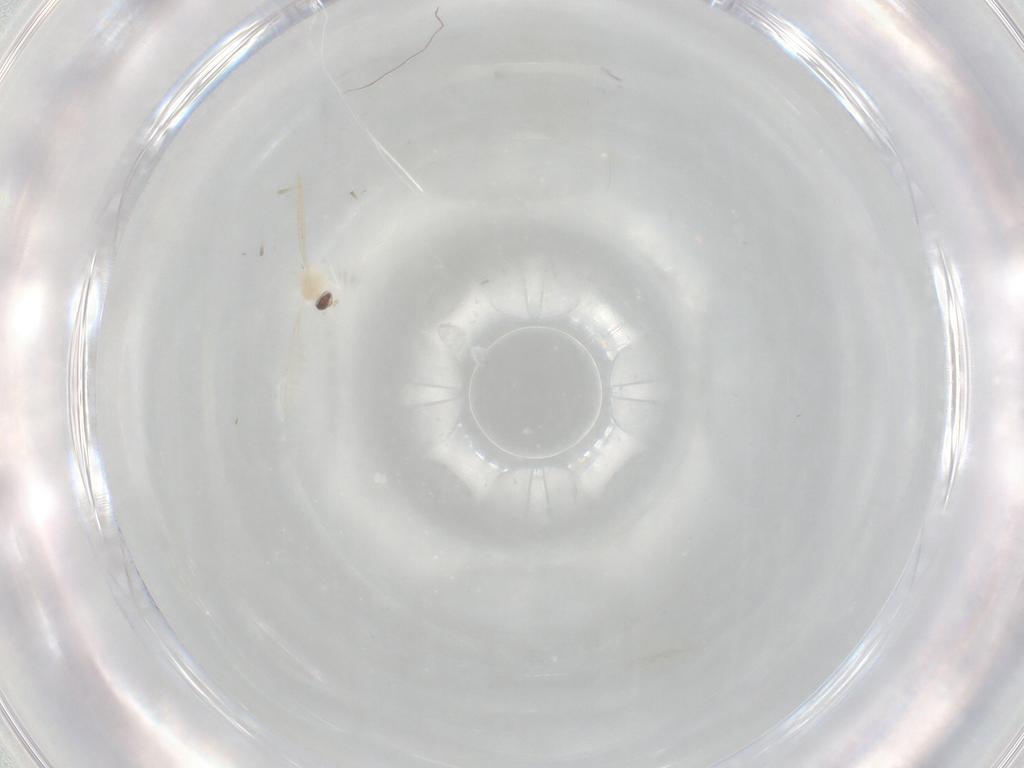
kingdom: Animalia
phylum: Arthropoda
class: Insecta
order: Diptera
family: Cecidomyiidae
